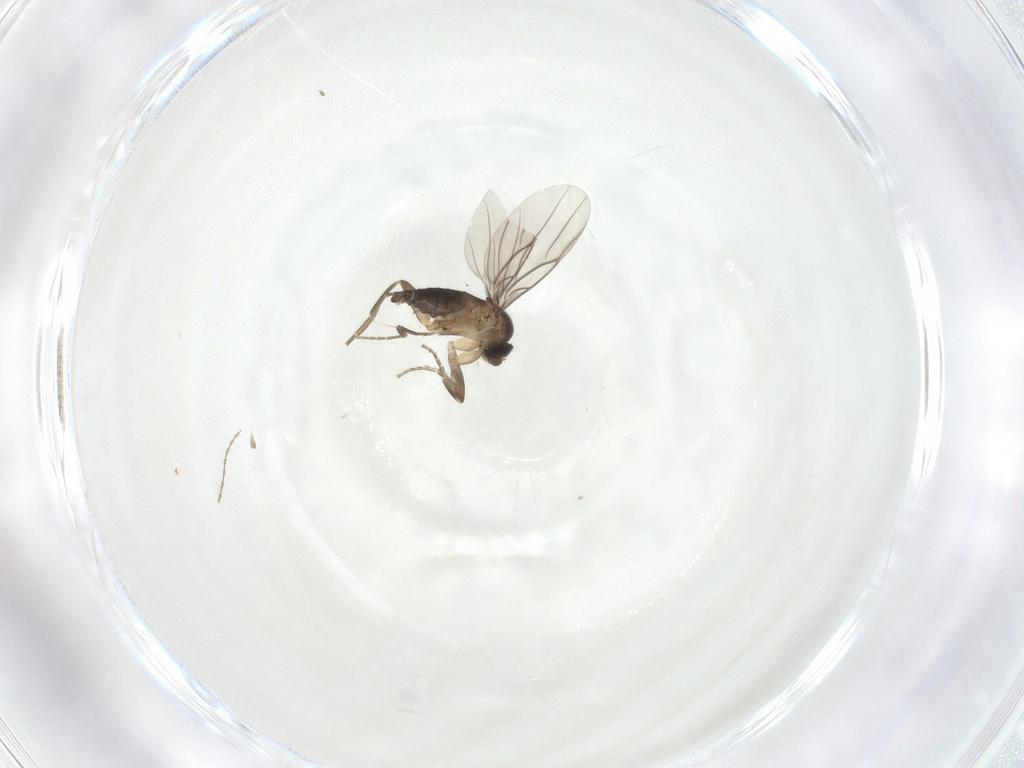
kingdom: Animalia
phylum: Arthropoda
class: Insecta
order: Diptera
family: Phoridae
